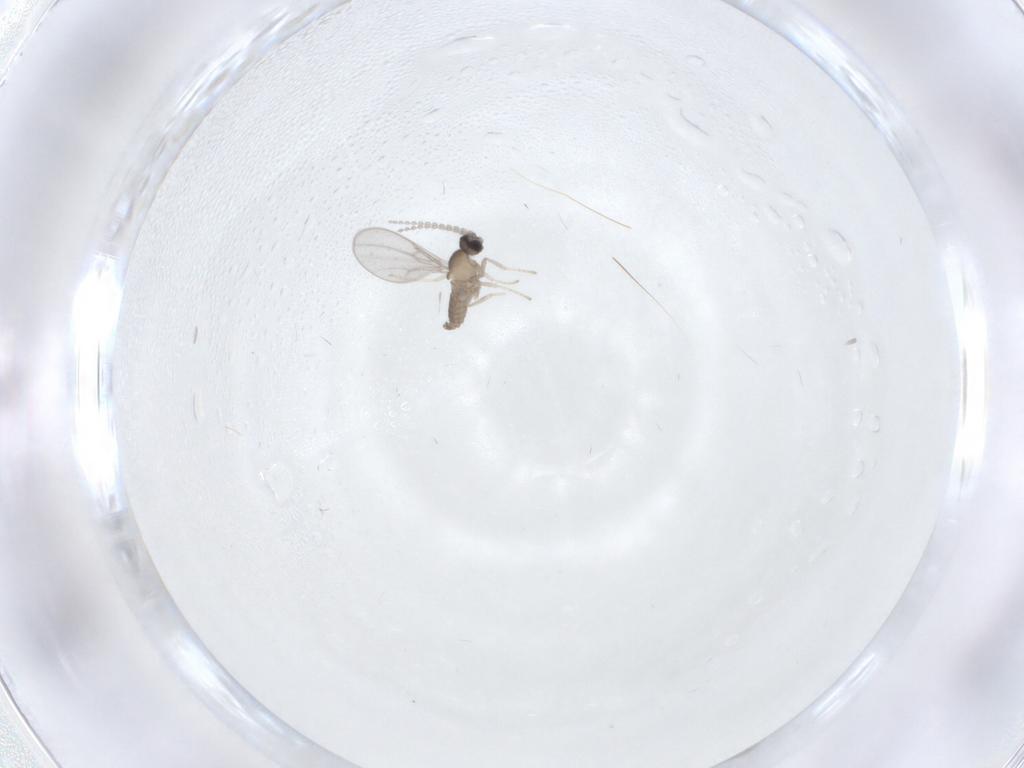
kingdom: Animalia
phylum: Arthropoda
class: Insecta
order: Diptera
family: Cecidomyiidae
